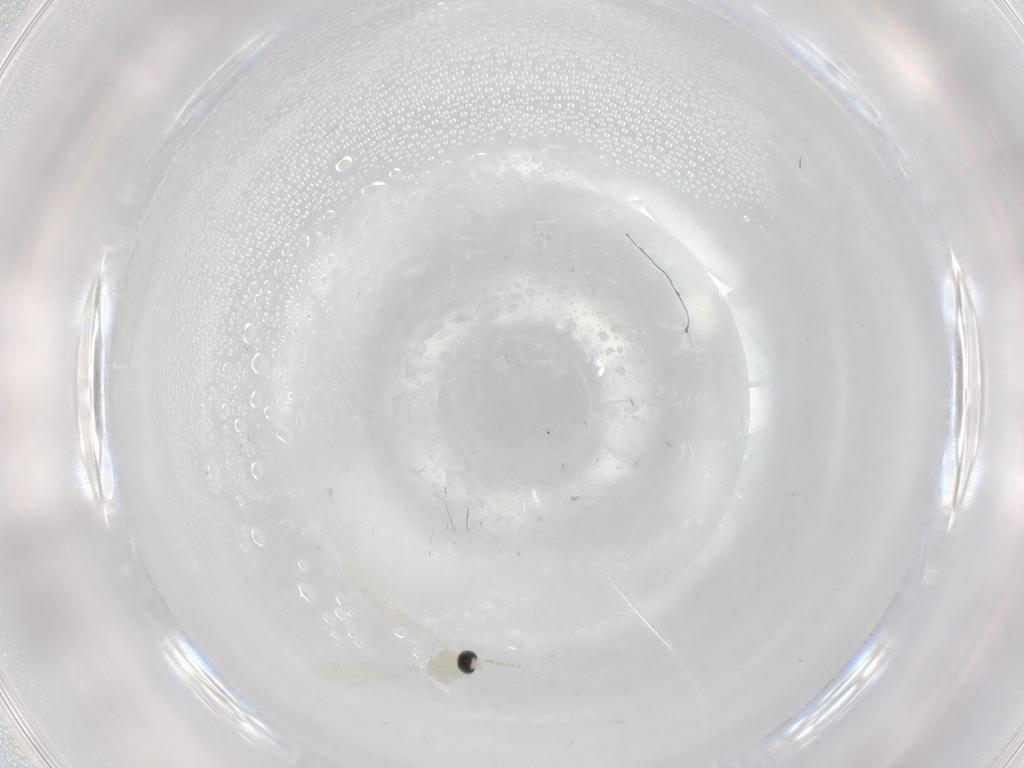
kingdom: Animalia
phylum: Arthropoda
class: Insecta
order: Diptera
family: Cecidomyiidae
